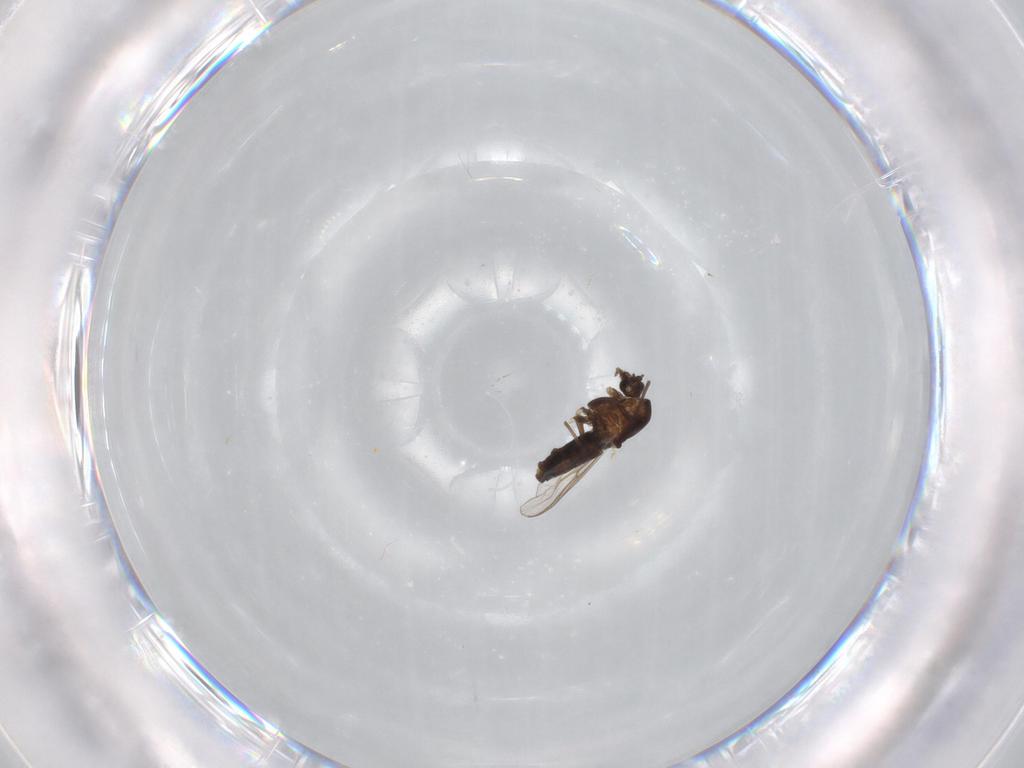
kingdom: Animalia
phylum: Arthropoda
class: Insecta
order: Diptera
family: Chironomidae
